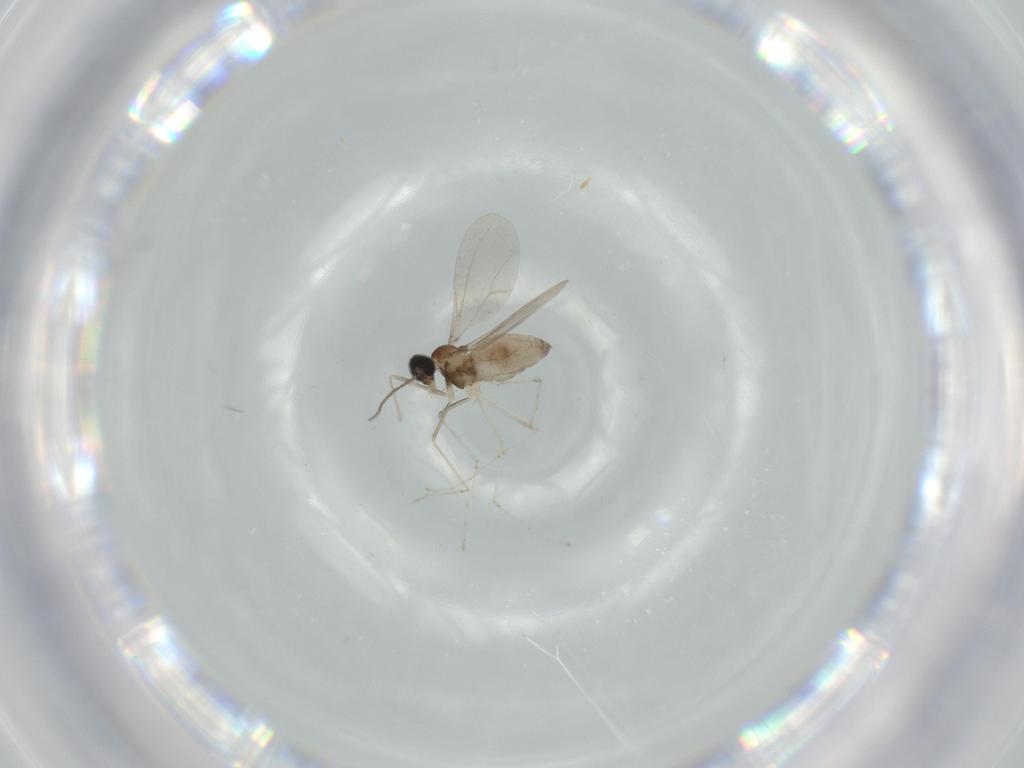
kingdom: Animalia
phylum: Arthropoda
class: Insecta
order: Diptera
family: Cecidomyiidae
